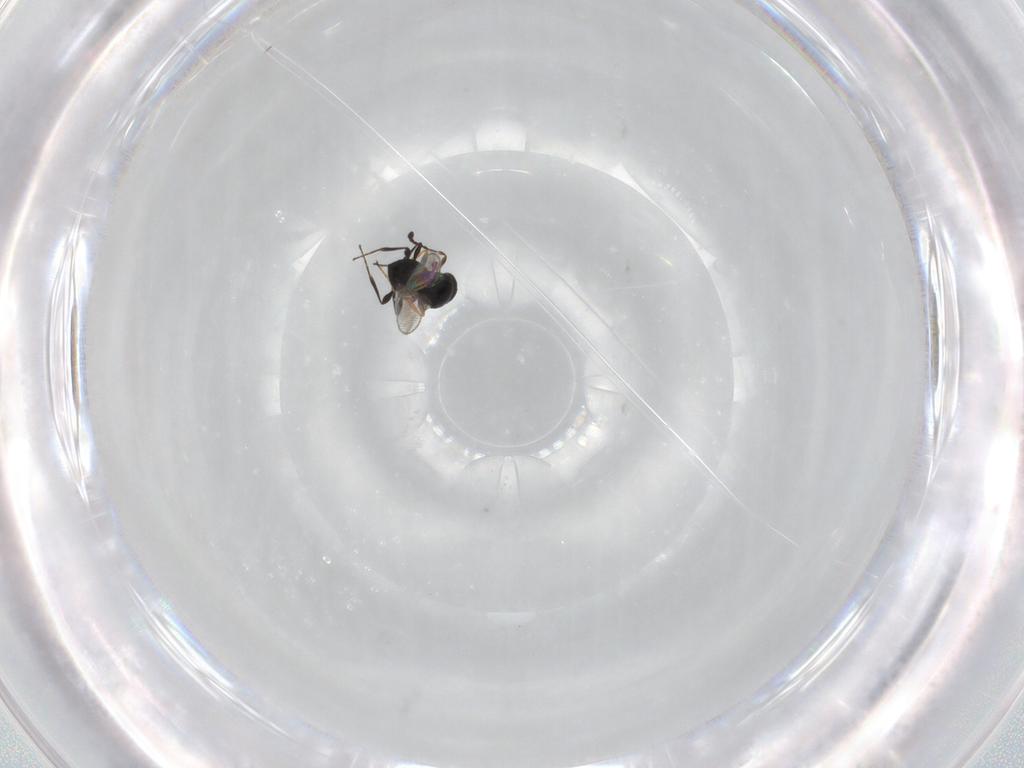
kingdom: Animalia
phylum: Arthropoda
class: Insecta
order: Hymenoptera
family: Platygastridae
